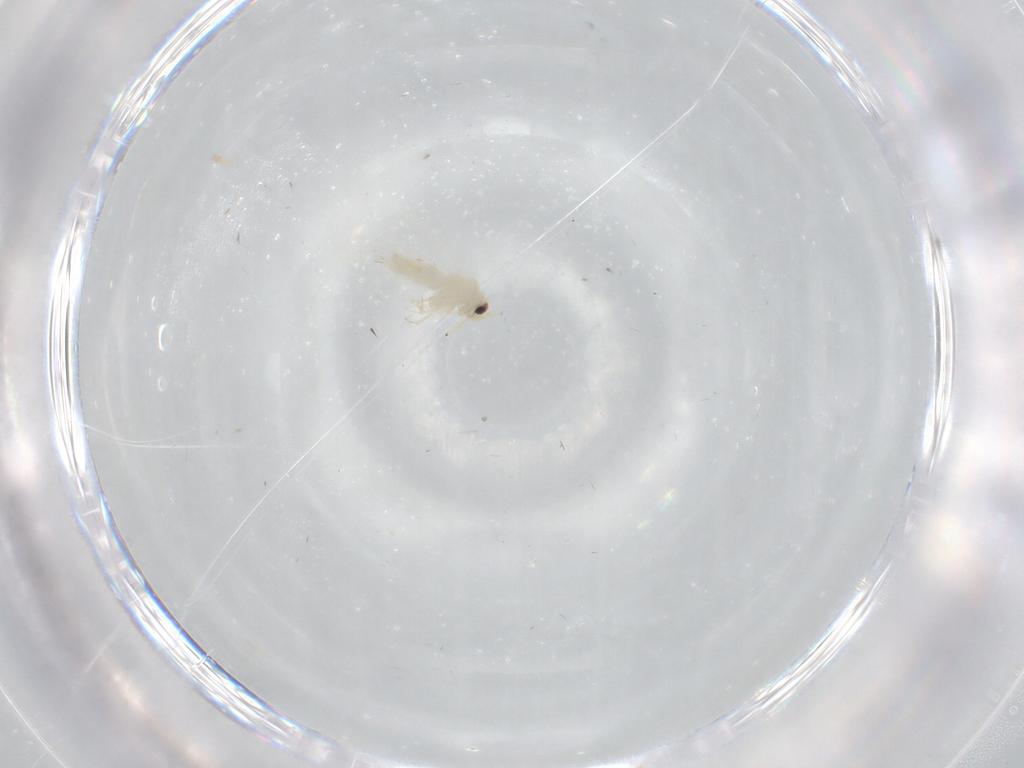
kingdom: Animalia
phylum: Arthropoda
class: Insecta
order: Hemiptera
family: Aleyrodidae
